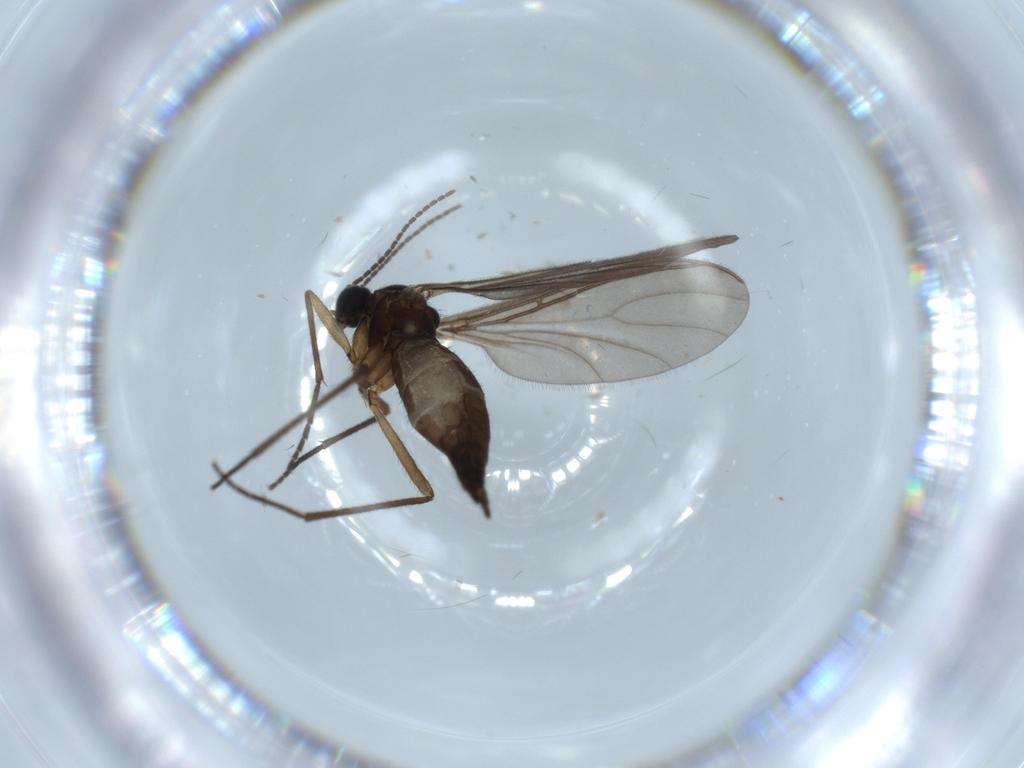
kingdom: Animalia
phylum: Arthropoda
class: Insecta
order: Diptera
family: Sciaridae
